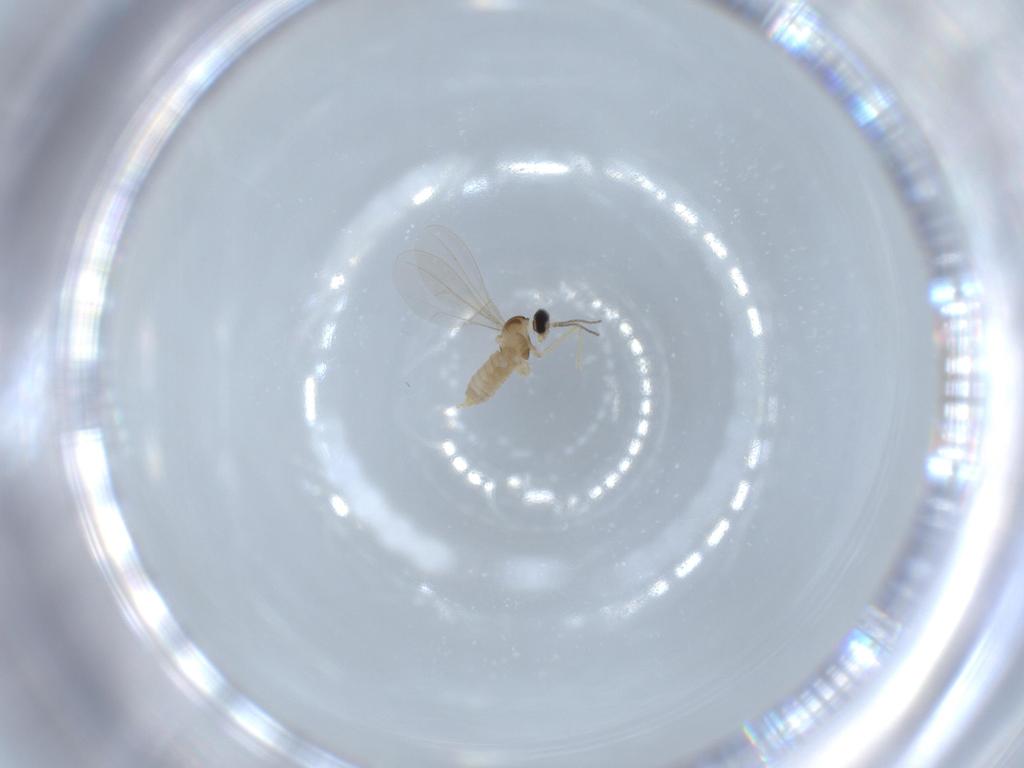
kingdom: Animalia
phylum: Arthropoda
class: Insecta
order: Diptera
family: Cecidomyiidae
